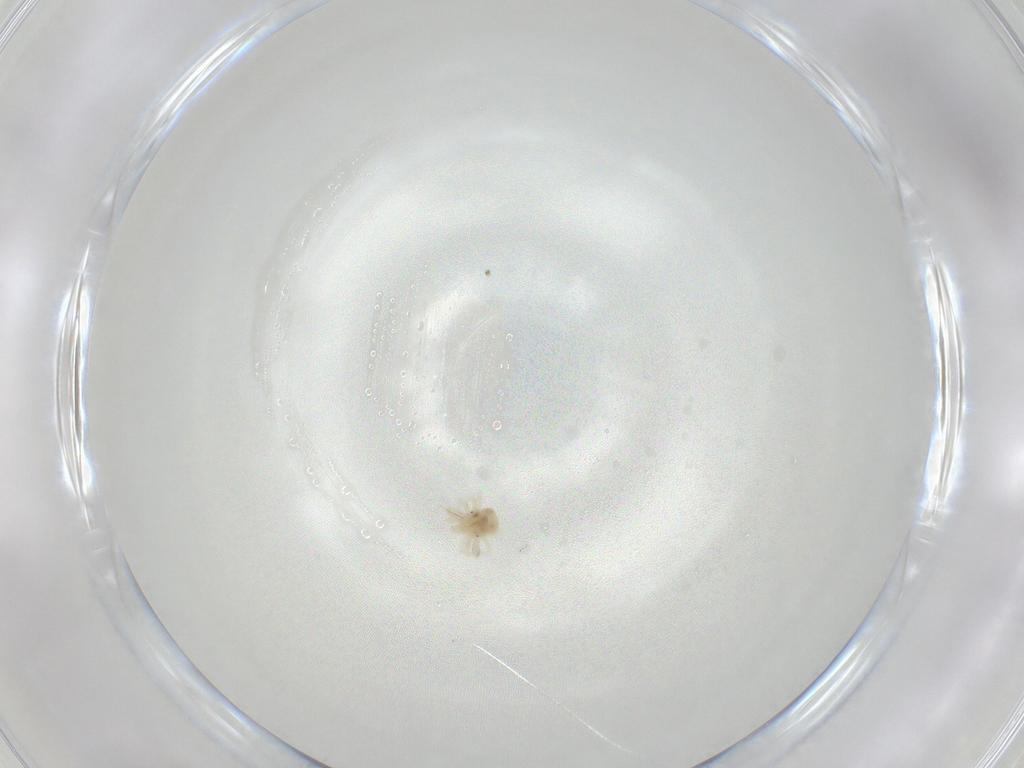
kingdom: Animalia
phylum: Arthropoda
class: Arachnida
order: Trombidiformes
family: Anystidae
